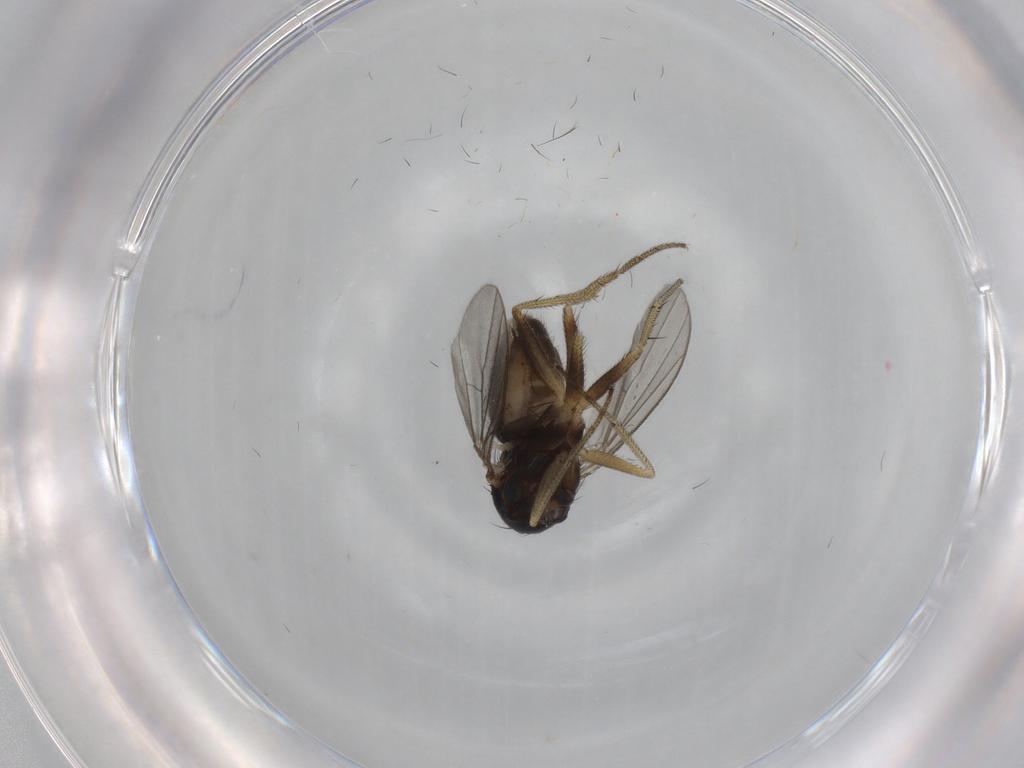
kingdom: Animalia
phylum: Arthropoda
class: Insecta
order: Diptera
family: Dolichopodidae
